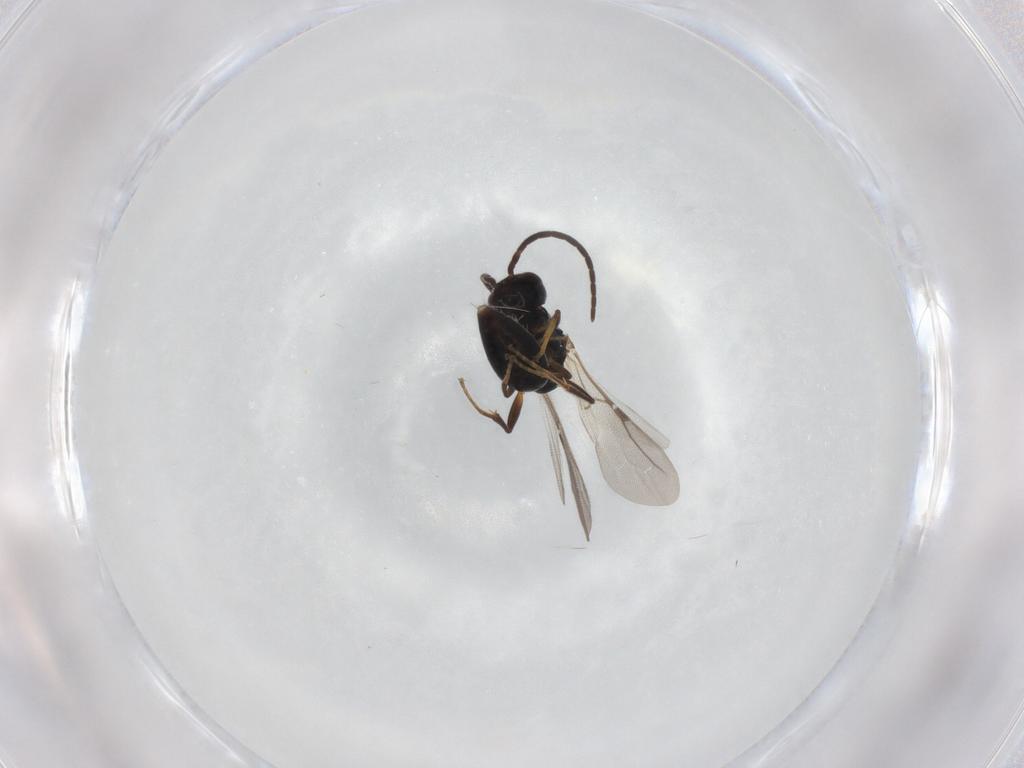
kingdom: Animalia
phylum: Arthropoda
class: Insecta
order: Hymenoptera
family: Bethylidae
